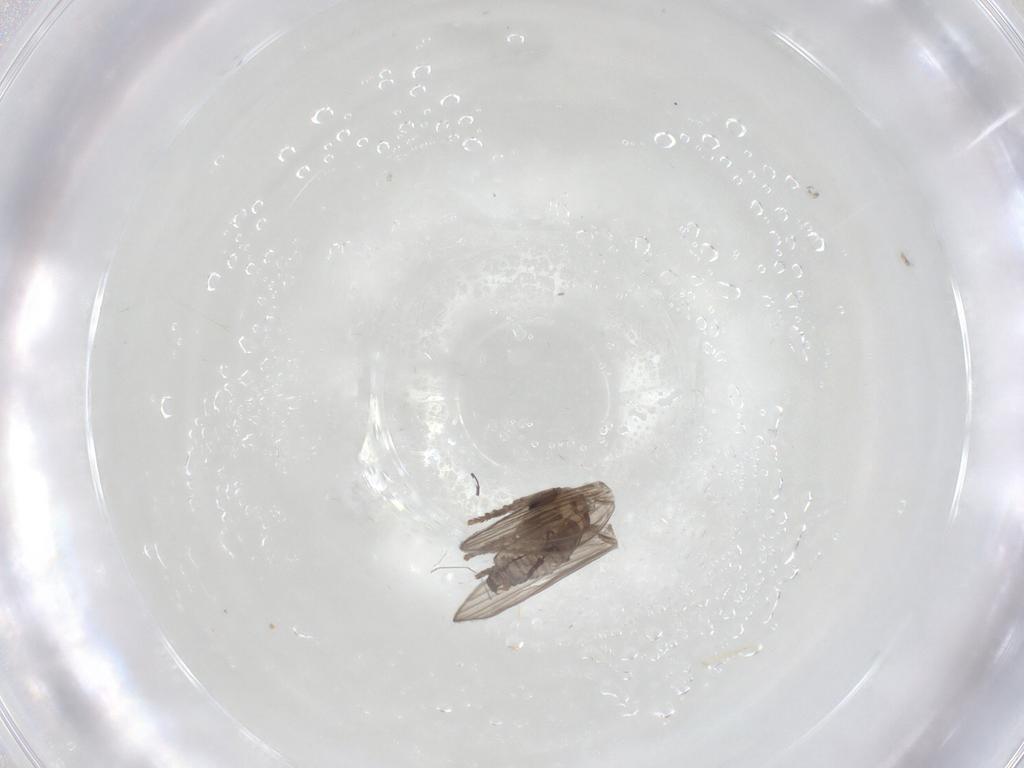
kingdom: Animalia
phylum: Arthropoda
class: Insecta
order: Diptera
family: Psychodidae
